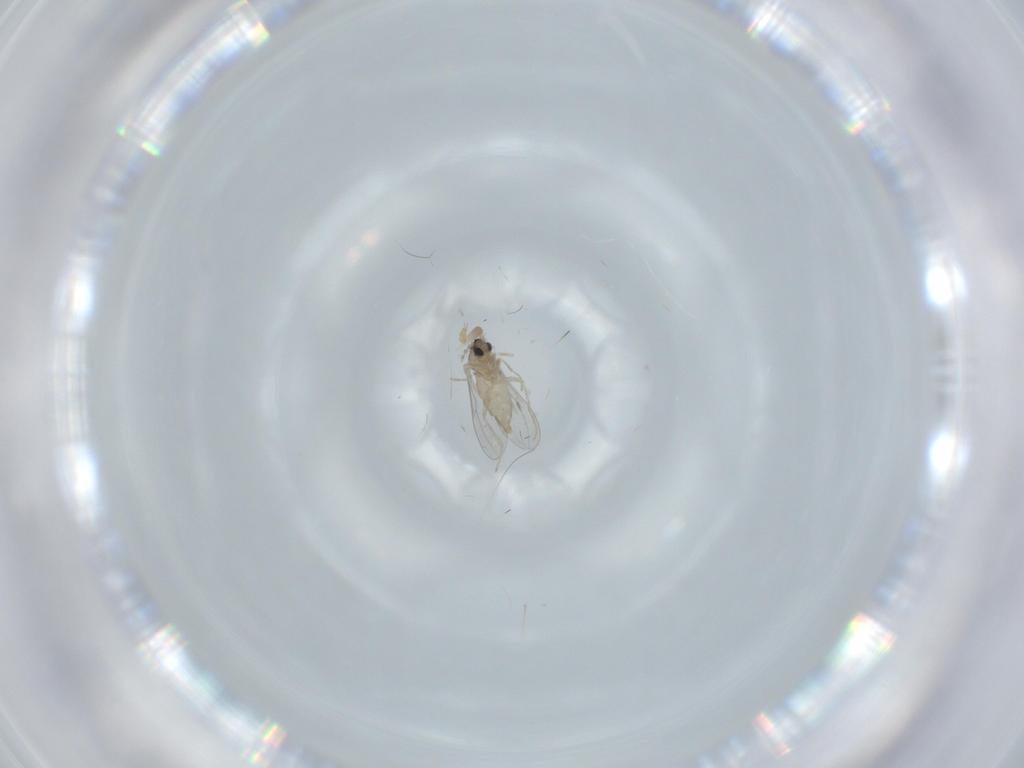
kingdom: Animalia
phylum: Arthropoda
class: Insecta
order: Diptera
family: Cecidomyiidae
